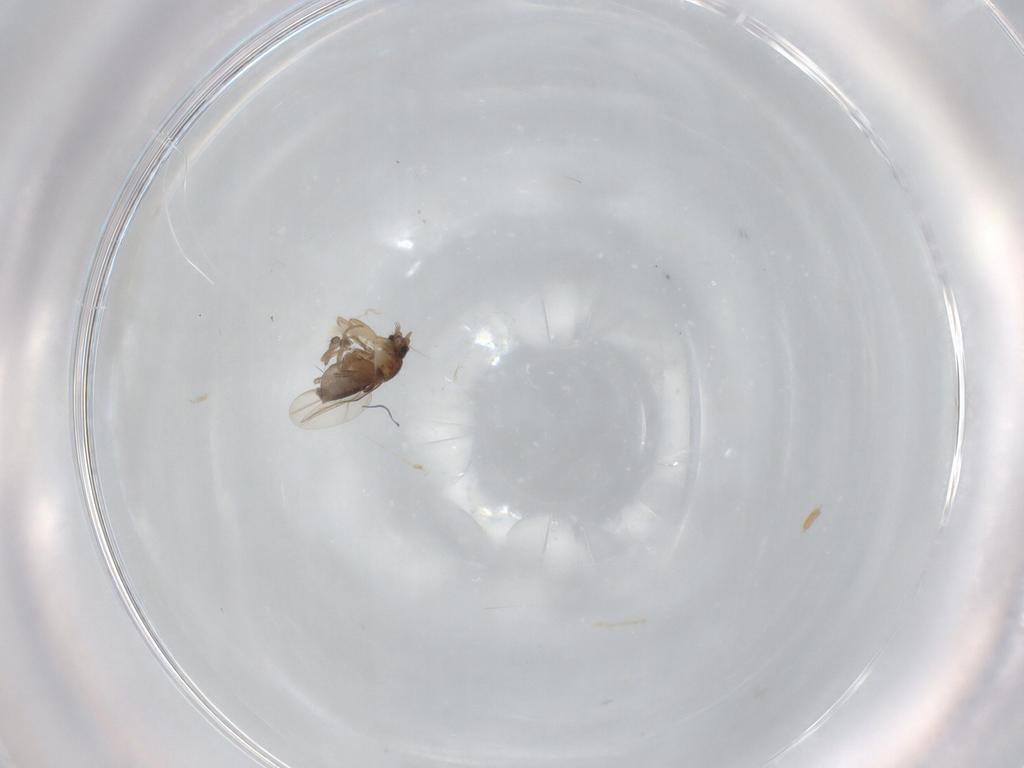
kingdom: Animalia
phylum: Arthropoda
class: Insecta
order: Diptera
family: Phoridae
